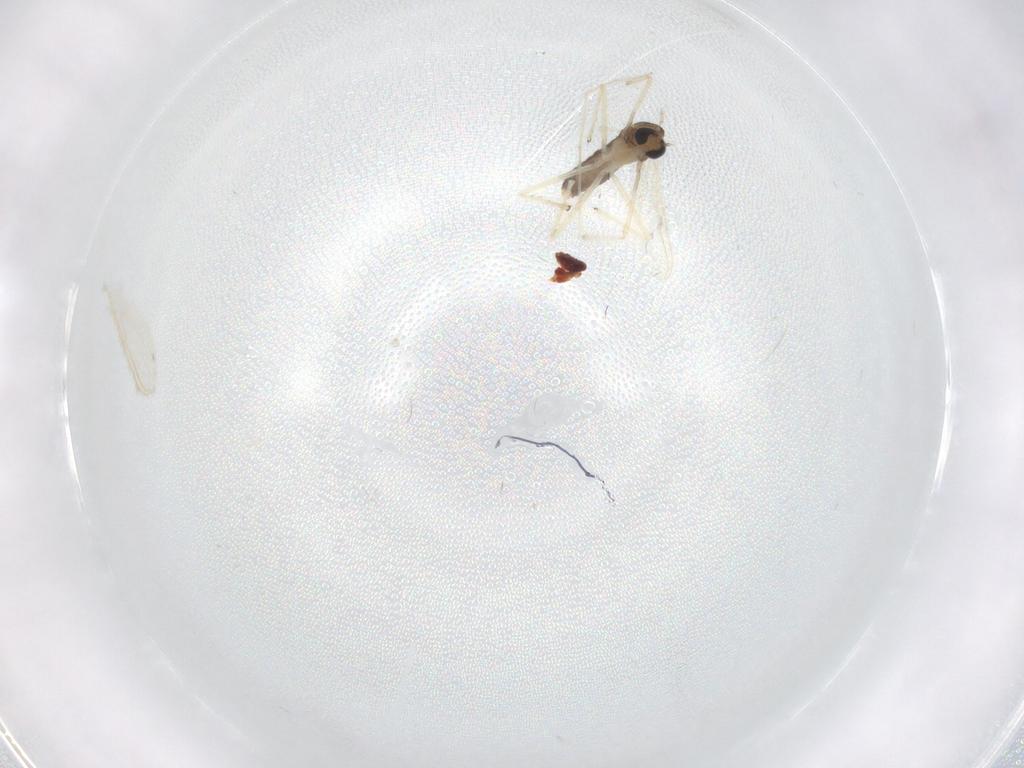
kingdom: Animalia
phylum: Arthropoda
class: Insecta
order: Diptera
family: Chironomidae
